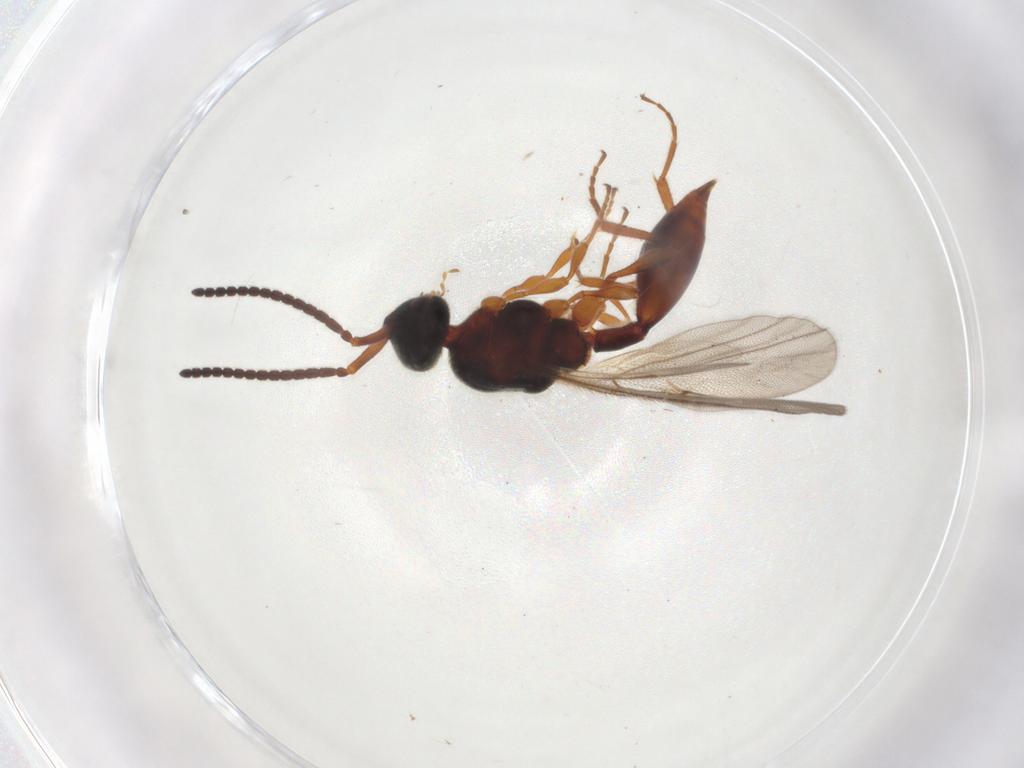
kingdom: Animalia
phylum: Arthropoda
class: Insecta
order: Hymenoptera
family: Diapriidae
